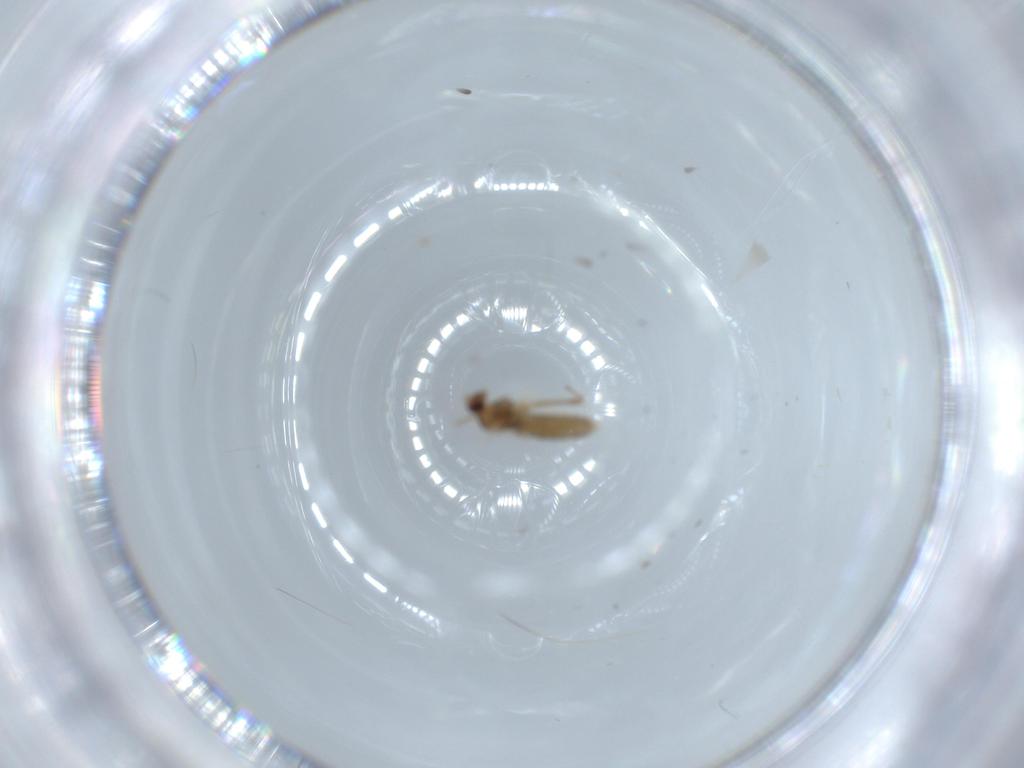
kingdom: Animalia
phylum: Arthropoda
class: Insecta
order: Diptera
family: Cecidomyiidae
